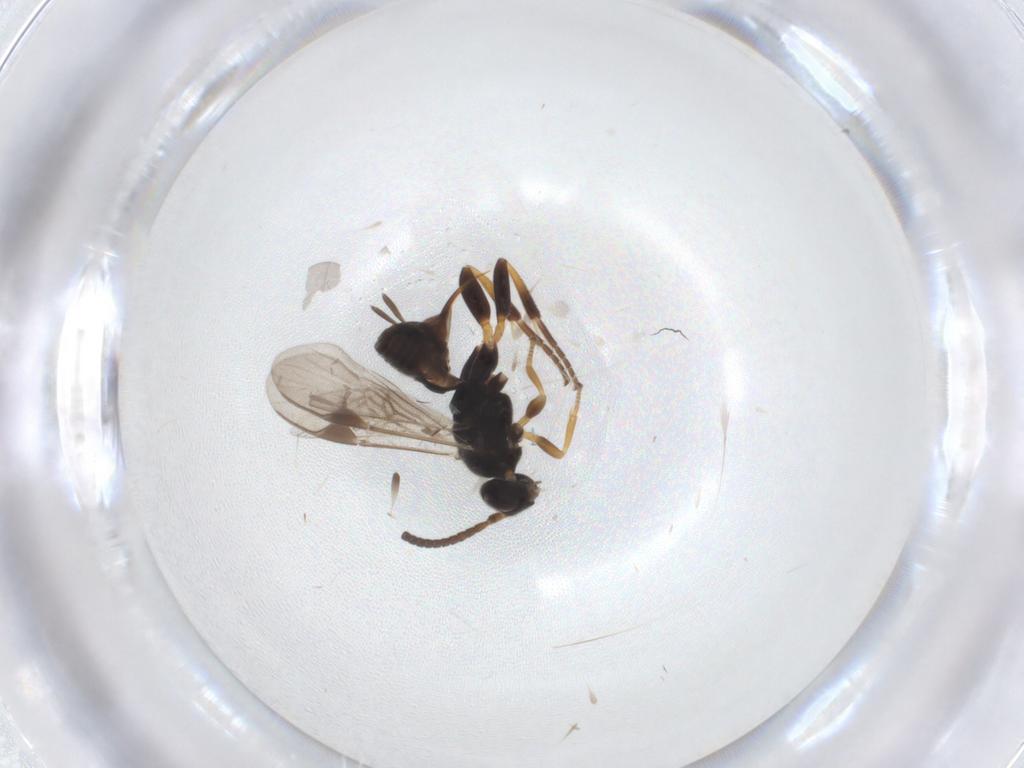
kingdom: Animalia
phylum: Arthropoda
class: Insecta
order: Hymenoptera
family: Braconidae
